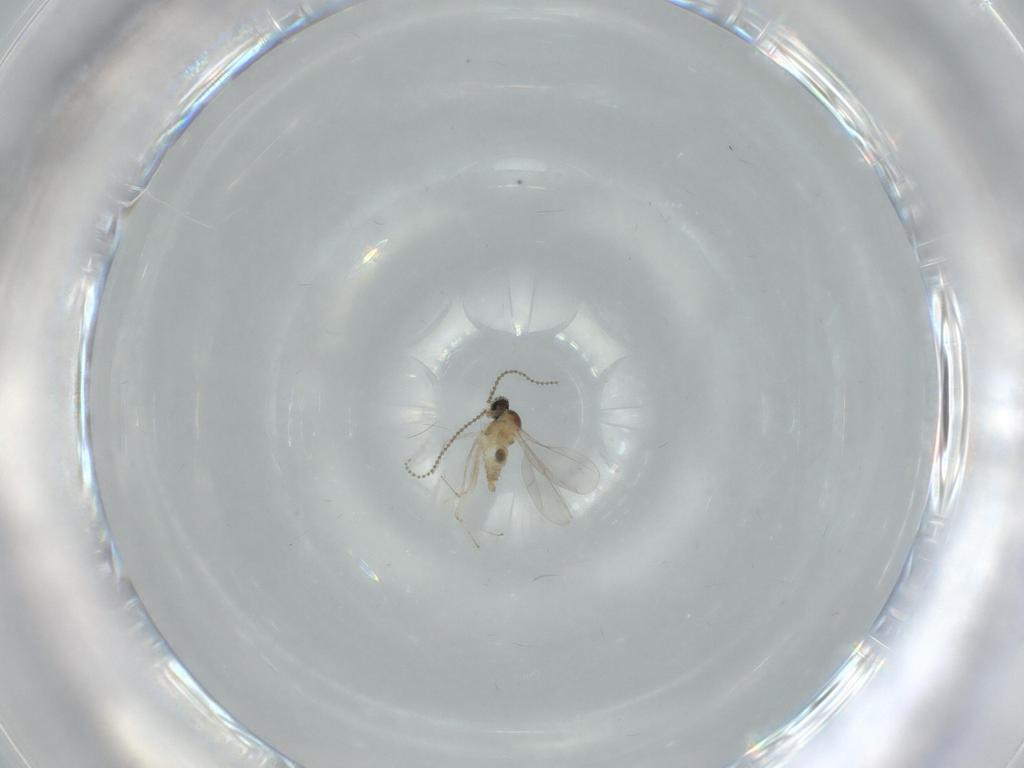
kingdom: Animalia
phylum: Arthropoda
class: Insecta
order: Diptera
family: Cecidomyiidae
